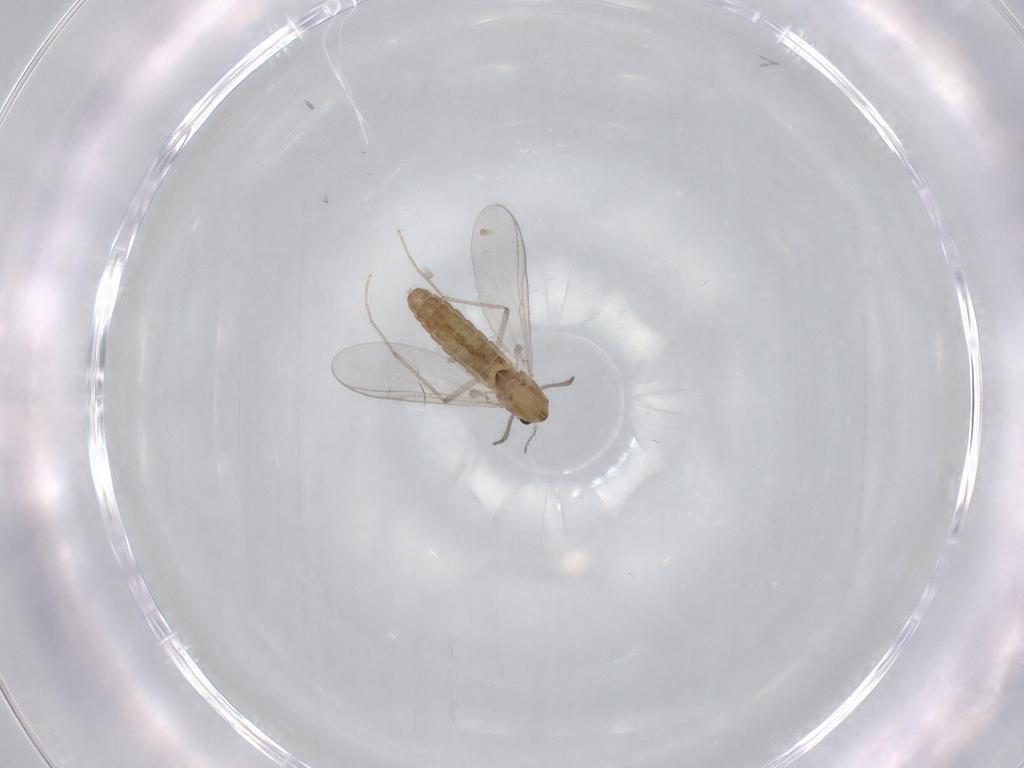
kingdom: Animalia
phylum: Arthropoda
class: Insecta
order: Diptera
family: Chironomidae
